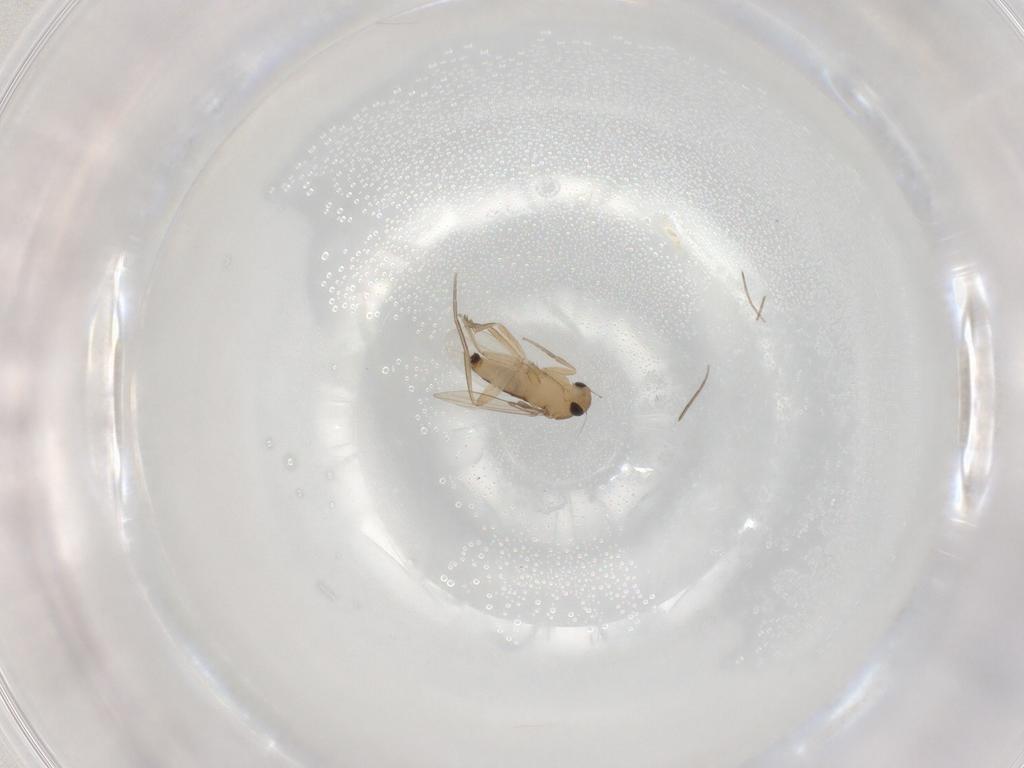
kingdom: Animalia
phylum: Arthropoda
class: Insecta
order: Diptera
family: Phoridae
